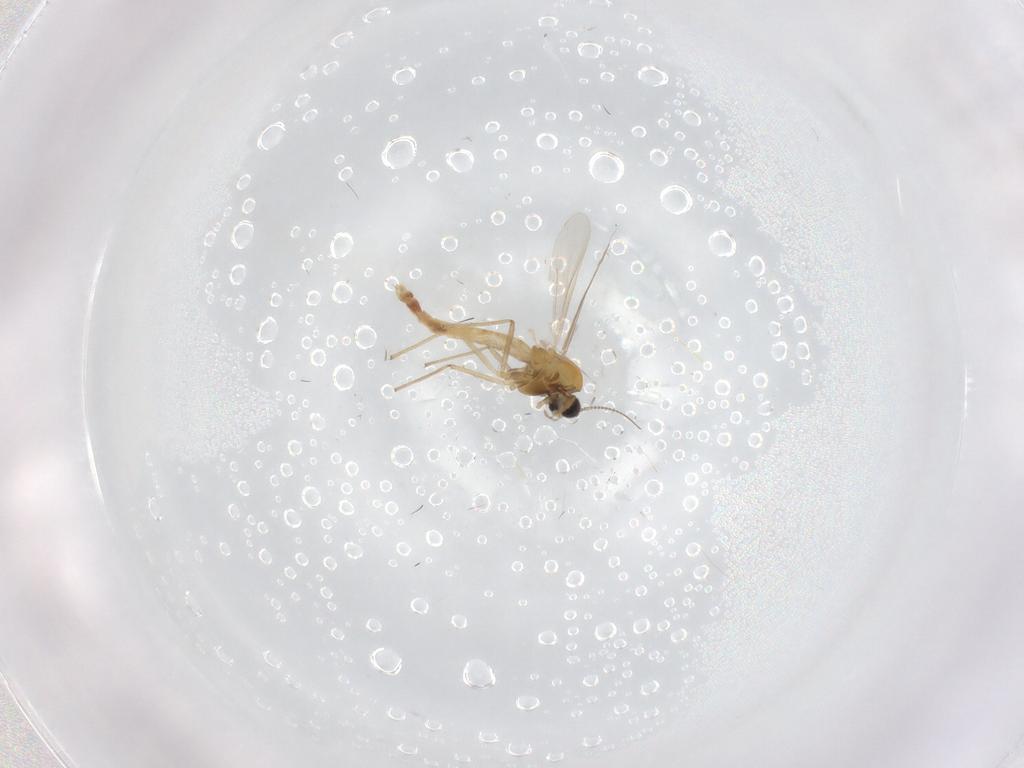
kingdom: Animalia
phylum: Arthropoda
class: Insecta
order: Diptera
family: Chironomidae
